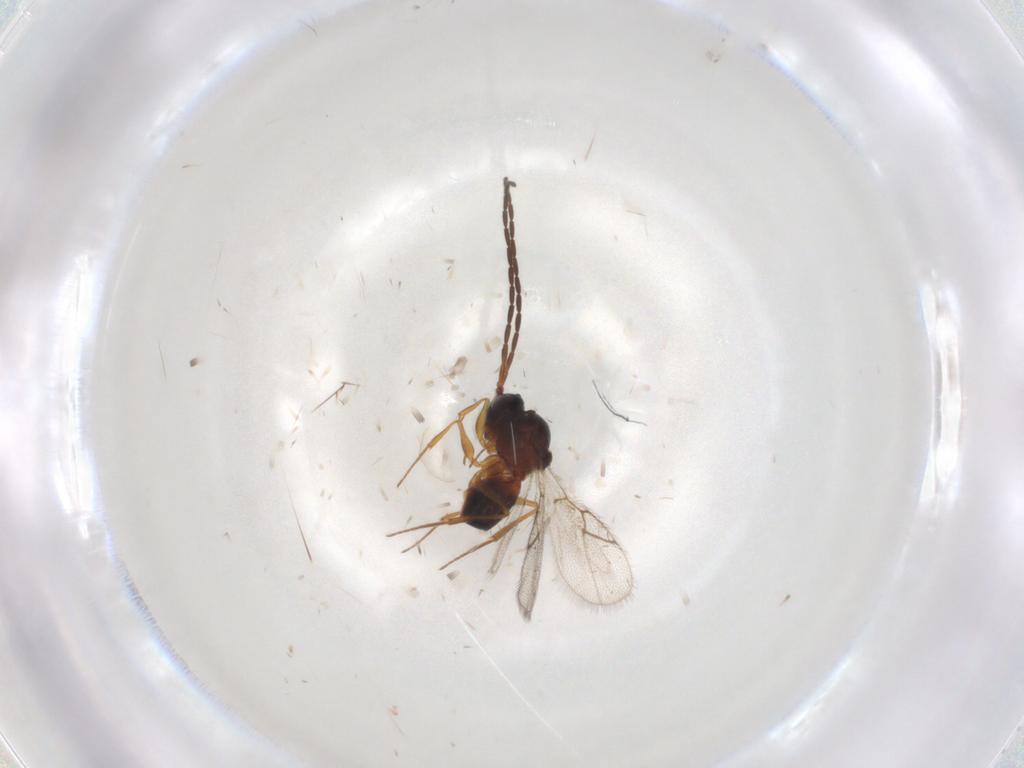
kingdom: Animalia
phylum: Arthropoda
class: Insecta
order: Hymenoptera
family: Figitidae
